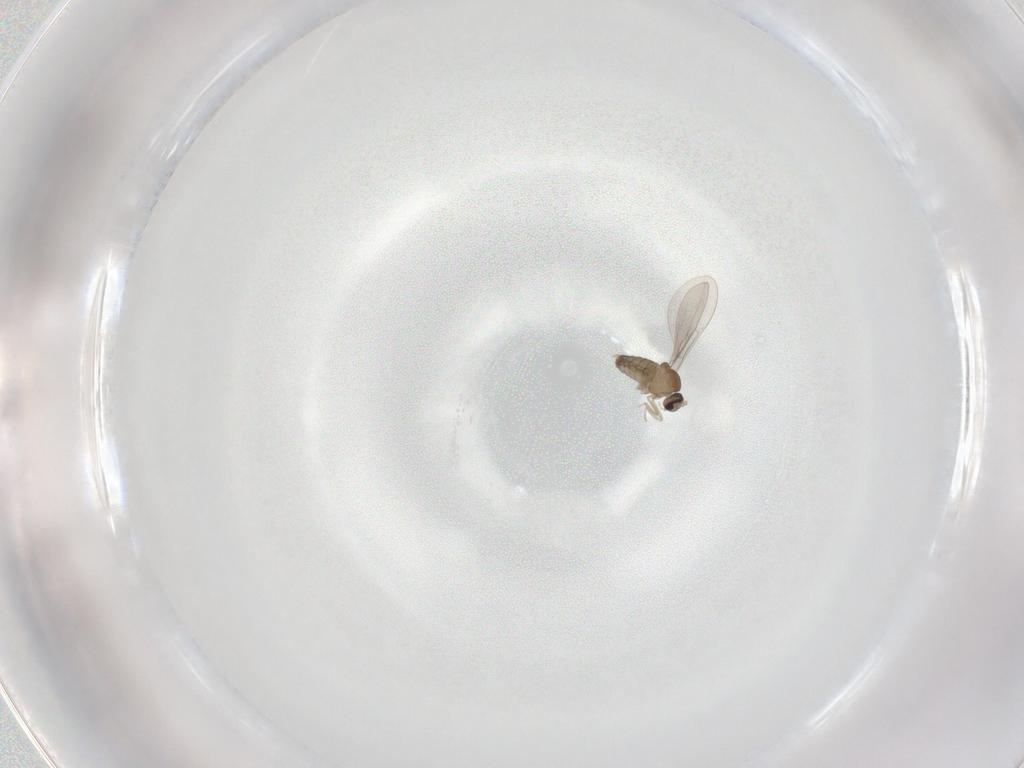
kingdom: Animalia
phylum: Arthropoda
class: Insecta
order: Diptera
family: Cecidomyiidae
